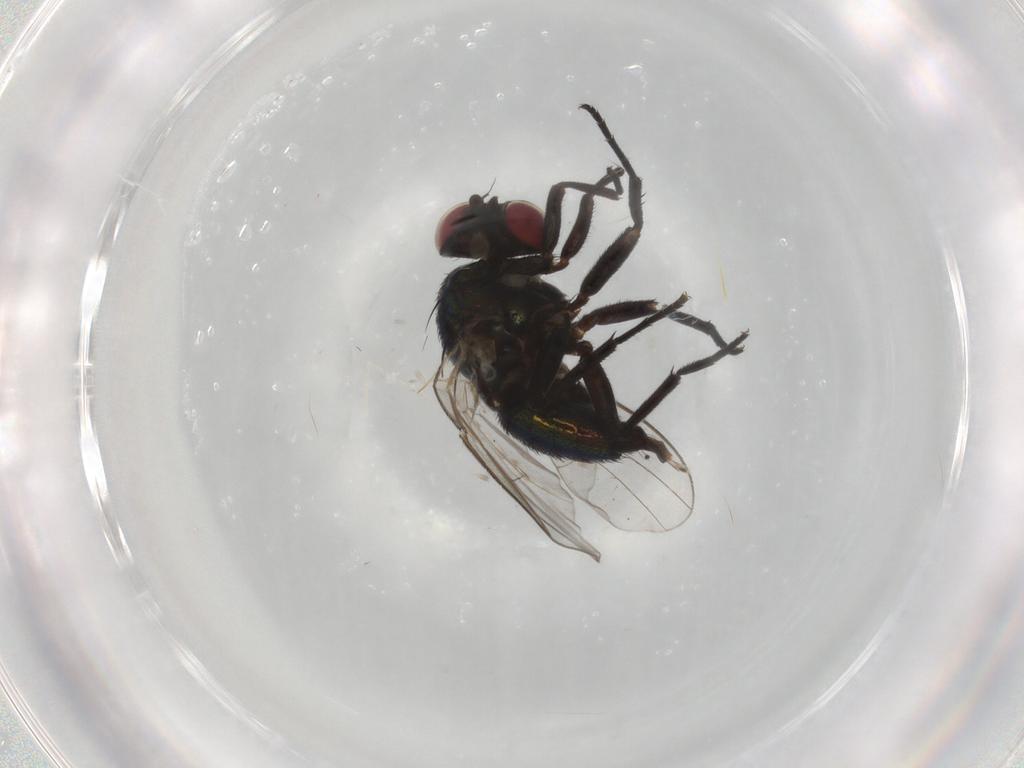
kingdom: Animalia
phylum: Arthropoda
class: Insecta
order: Diptera
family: Agromyzidae
